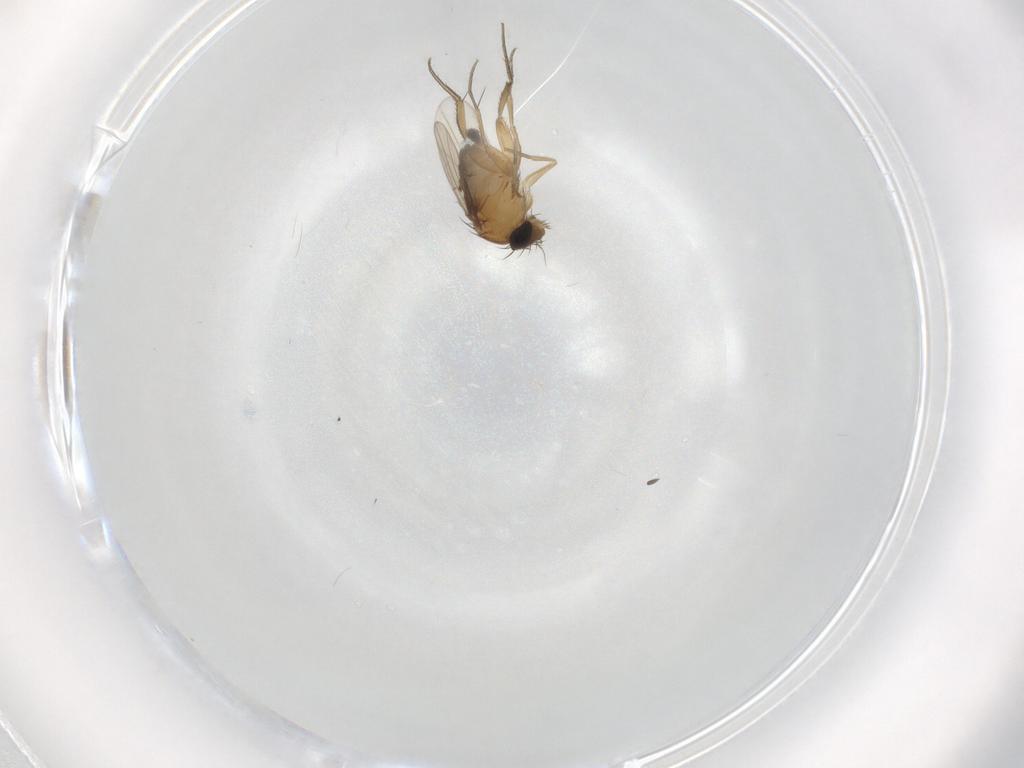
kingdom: Animalia
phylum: Arthropoda
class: Insecta
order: Diptera
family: Phoridae
